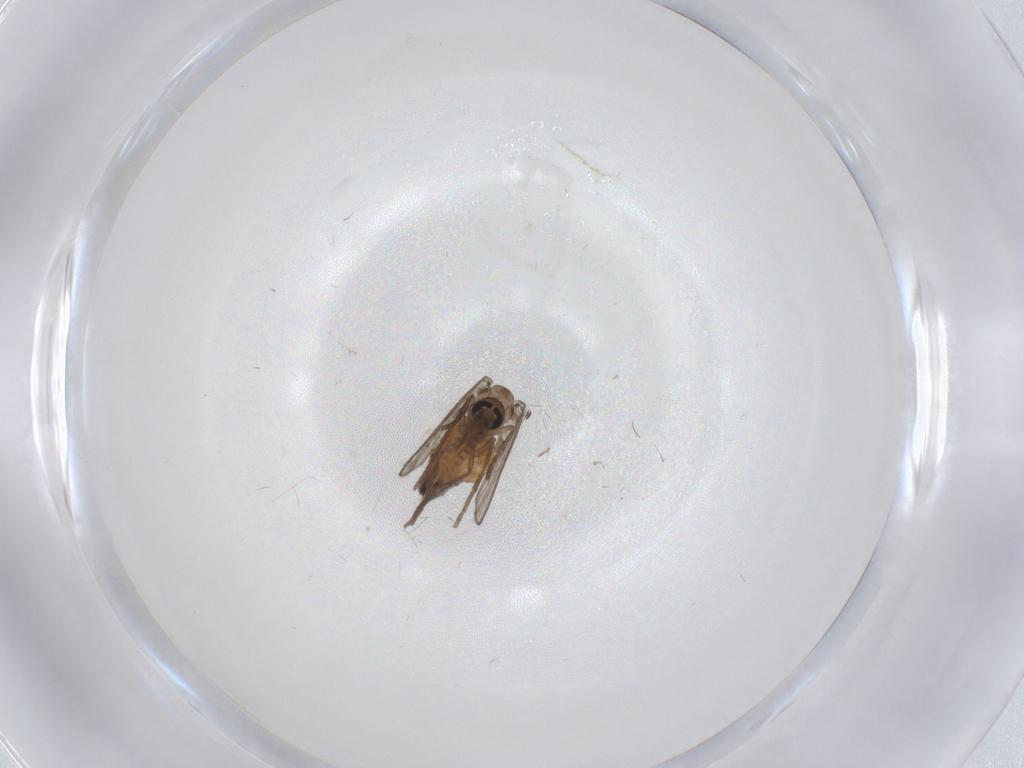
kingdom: Animalia
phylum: Arthropoda
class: Insecta
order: Diptera
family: Psychodidae
